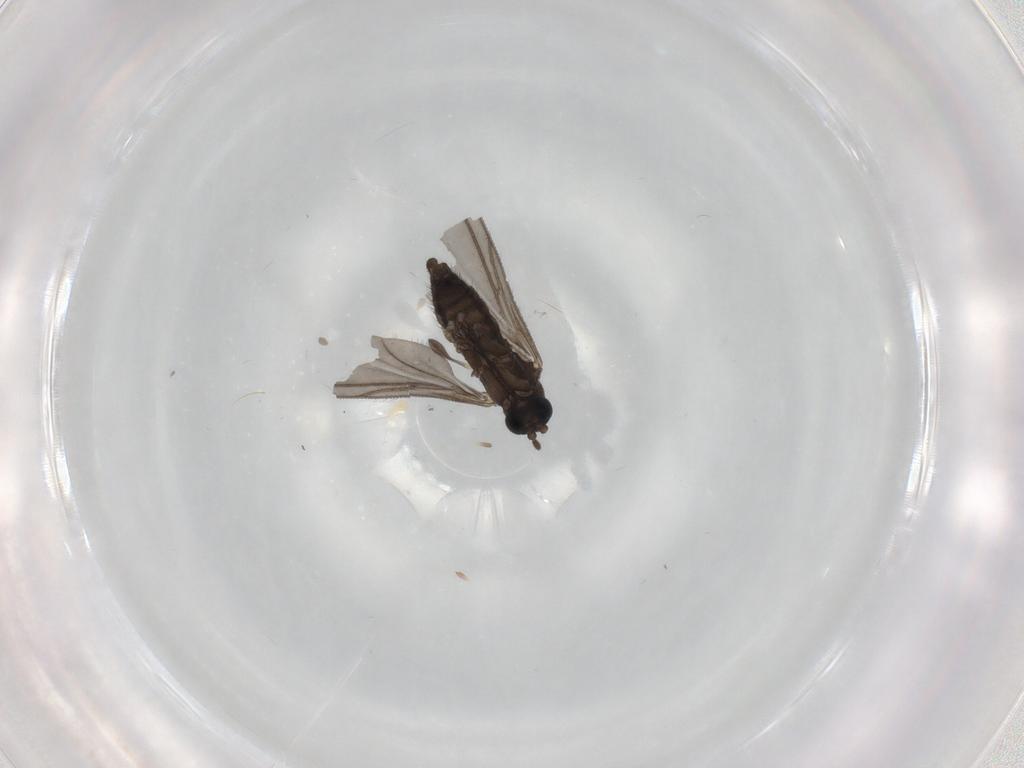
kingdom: Animalia
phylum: Arthropoda
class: Insecta
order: Diptera
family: Sciaridae
